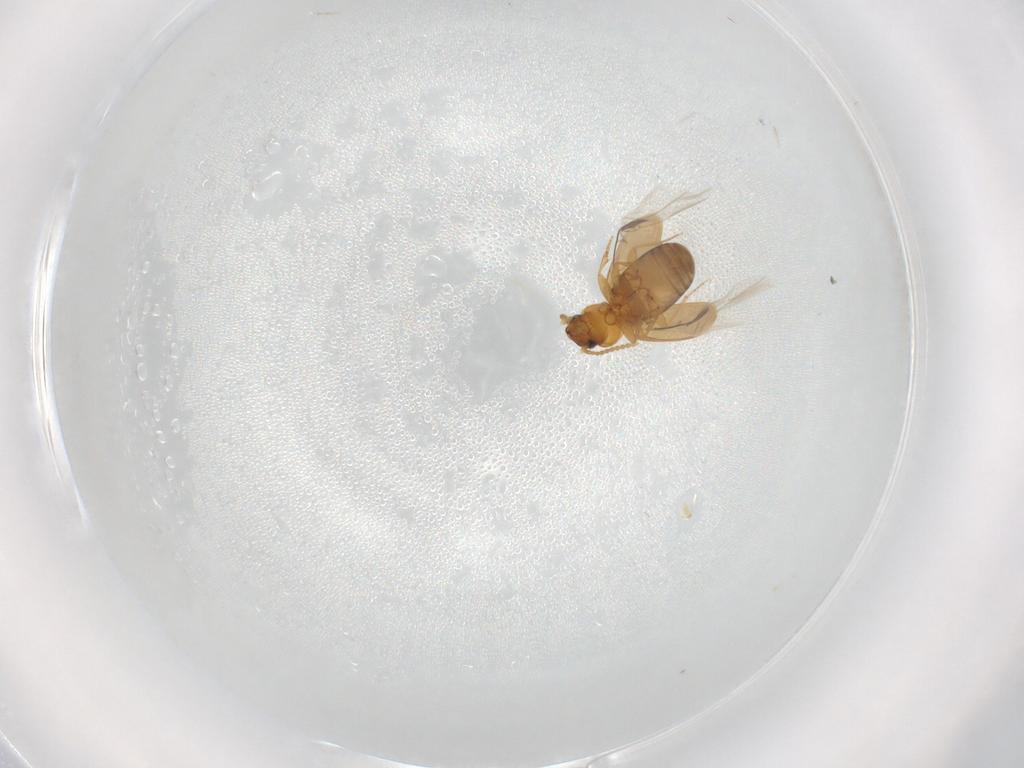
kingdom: Animalia
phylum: Arthropoda
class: Insecta
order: Coleoptera
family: Carabidae
